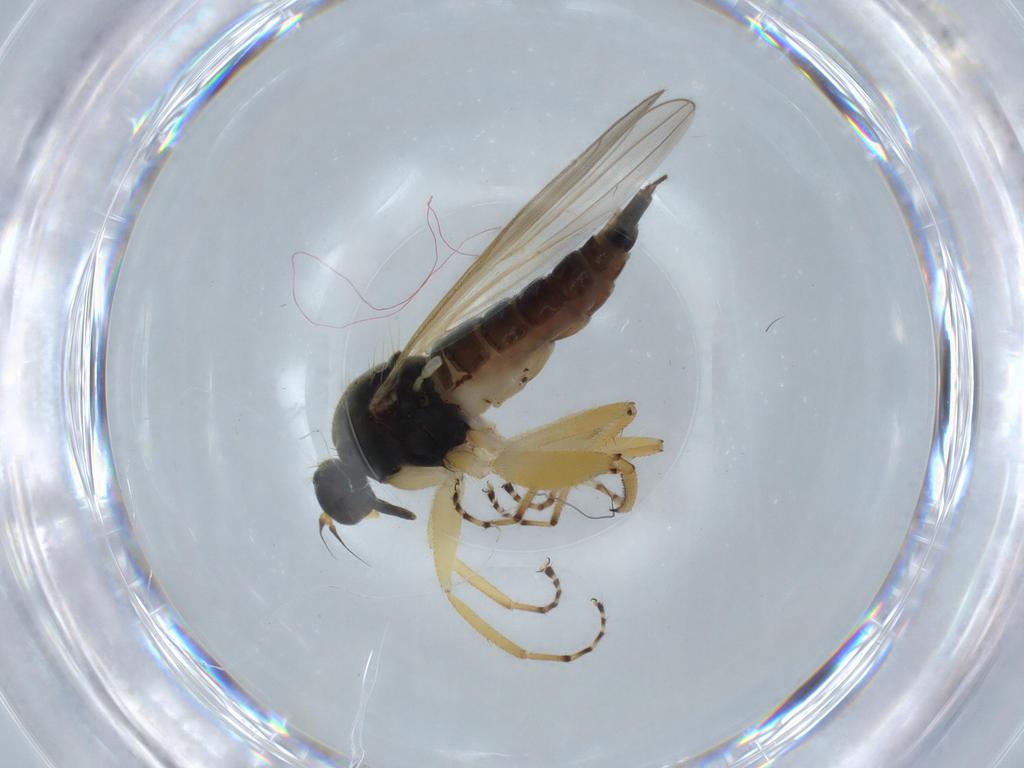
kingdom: Animalia
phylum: Arthropoda
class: Insecta
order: Diptera
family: Hybotidae
